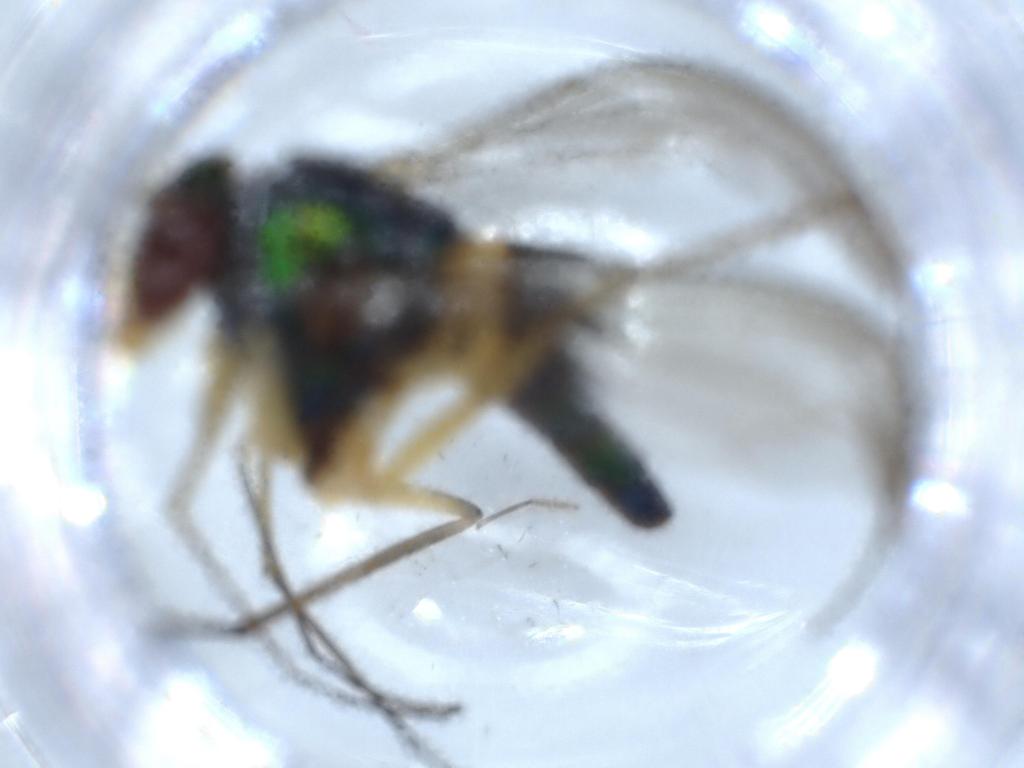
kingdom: Animalia
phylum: Arthropoda
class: Insecta
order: Diptera
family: Dolichopodidae
